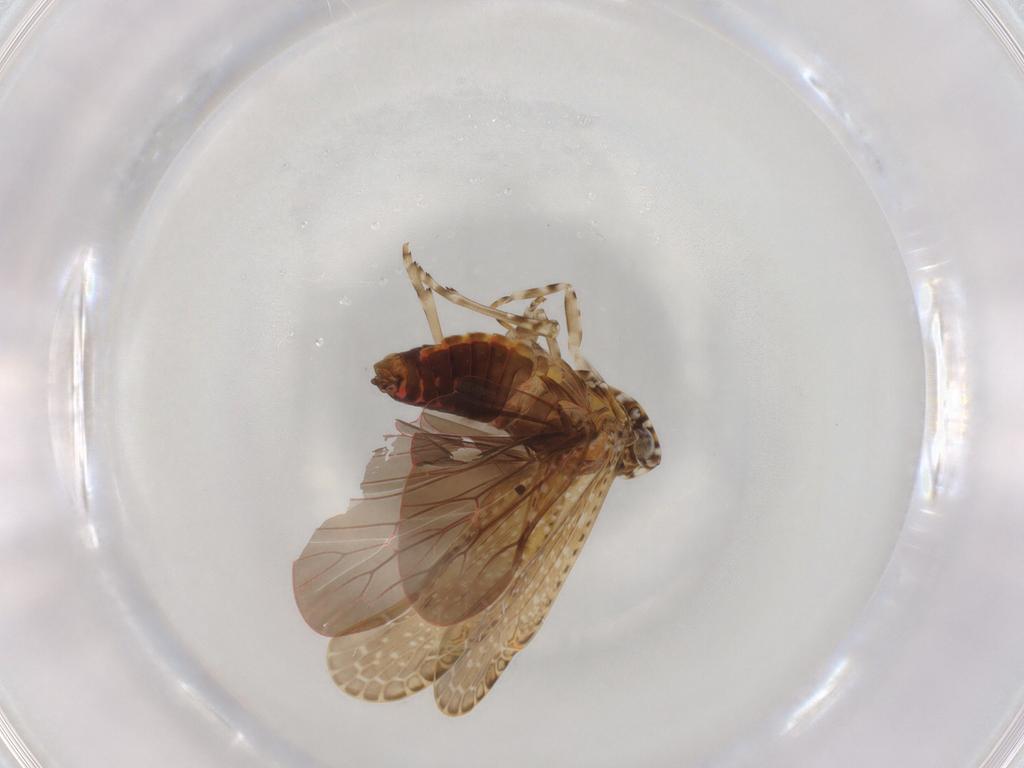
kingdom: Animalia
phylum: Arthropoda
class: Insecta
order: Hemiptera
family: Achilidae
